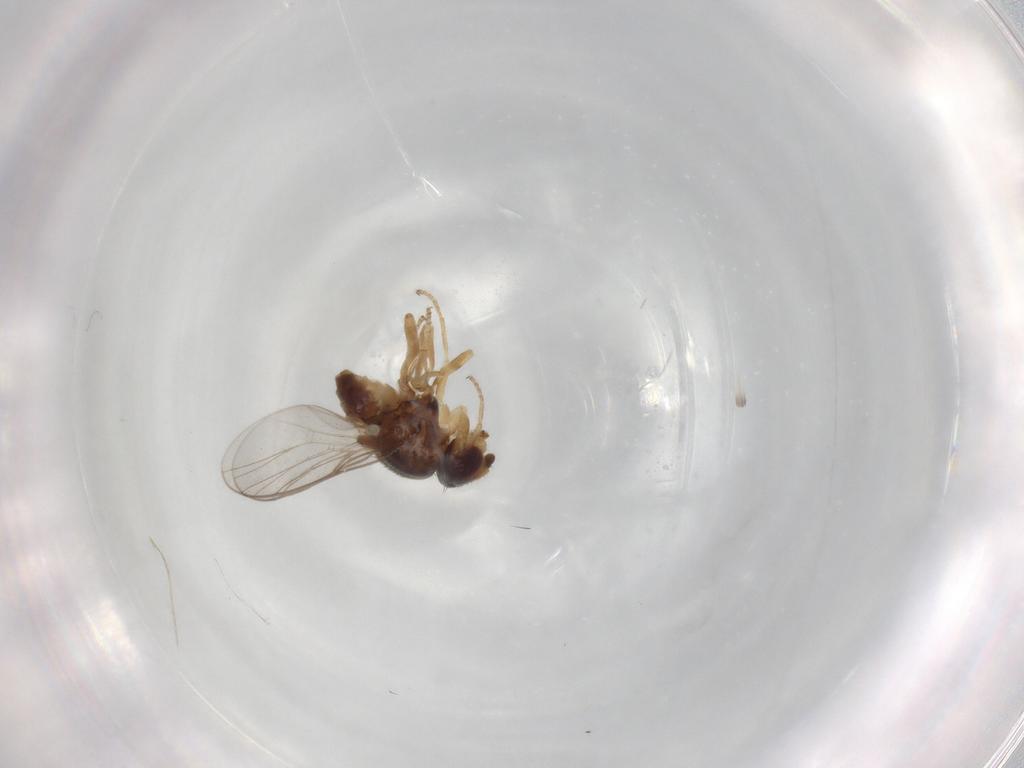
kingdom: Animalia
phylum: Arthropoda
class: Insecta
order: Diptera
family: Chloropidae
